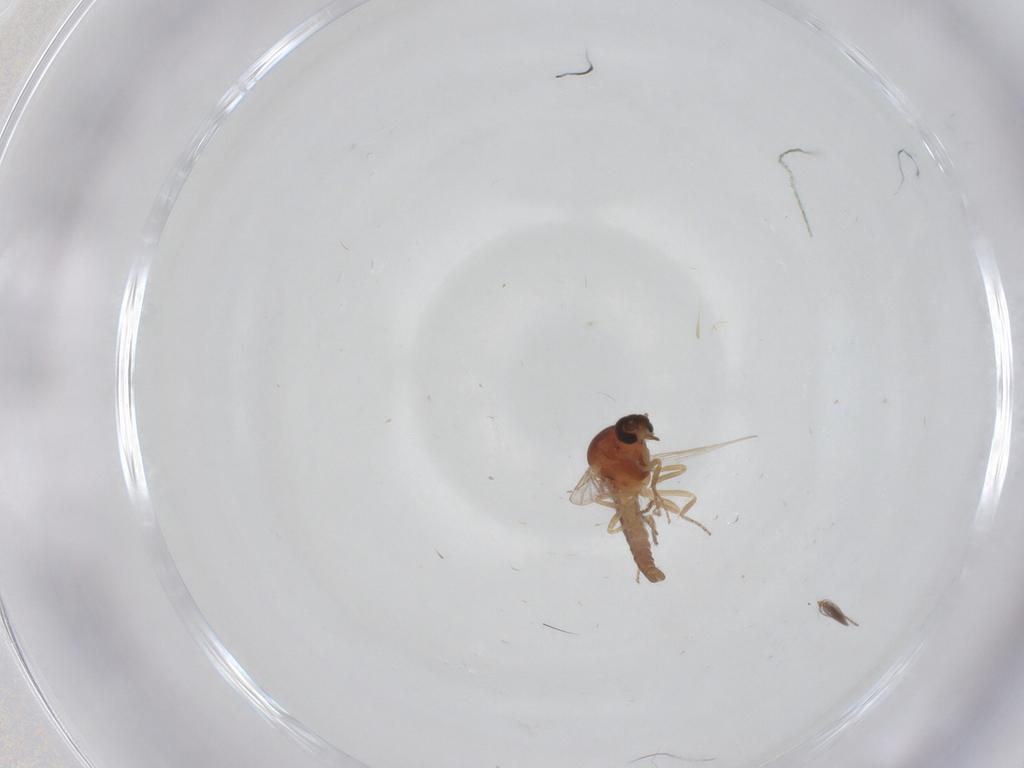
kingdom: Animalia
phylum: Arthropoda
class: Insecta
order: Diptera
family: Ceratopogonidae
